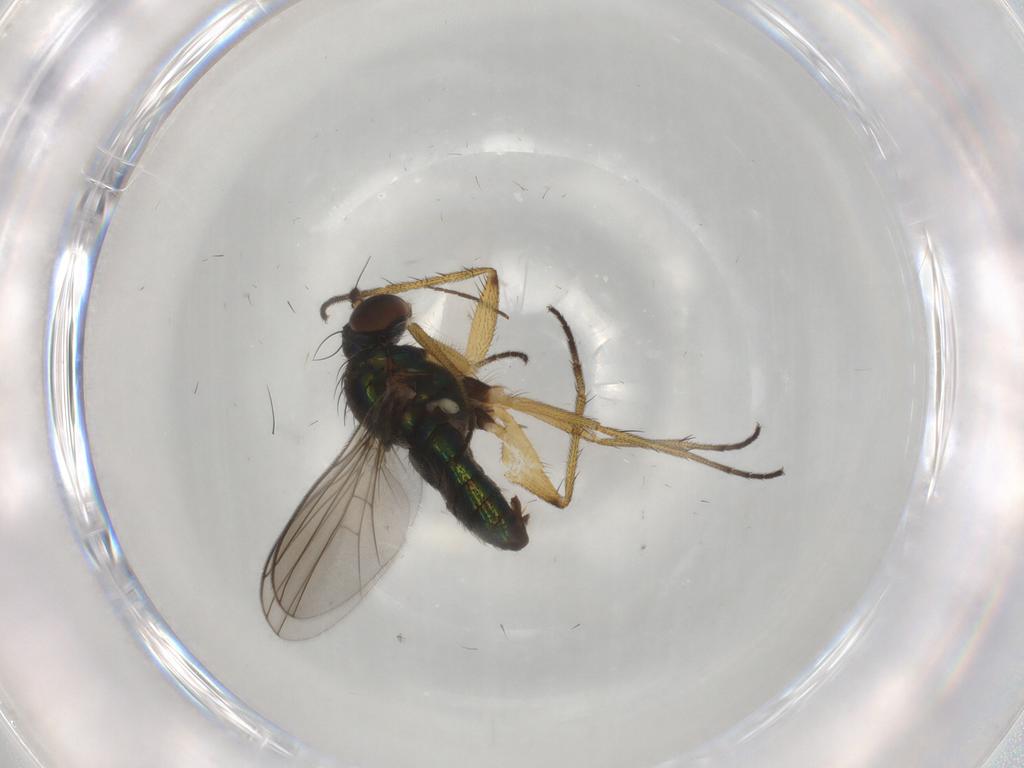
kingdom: Animalia
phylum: Arthropoda
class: Insecta
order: Diptera
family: Dolichopodidae
